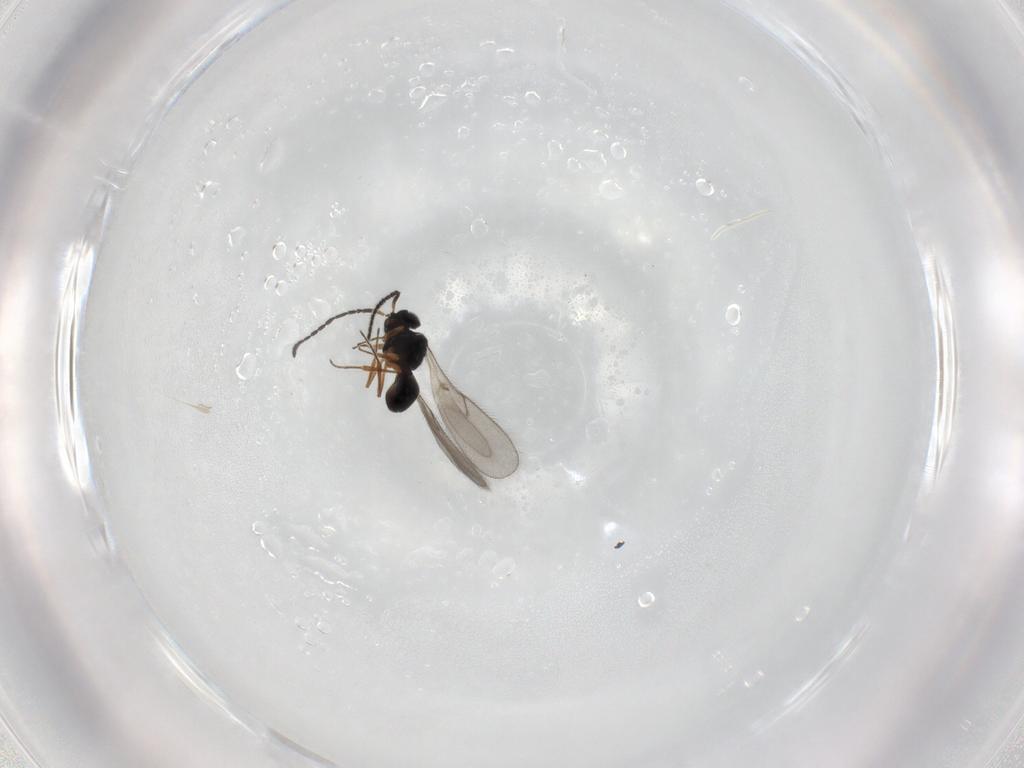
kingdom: Animalia
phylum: Arthropoda
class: Insecta
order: Hymenoptera
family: Scelionidae
